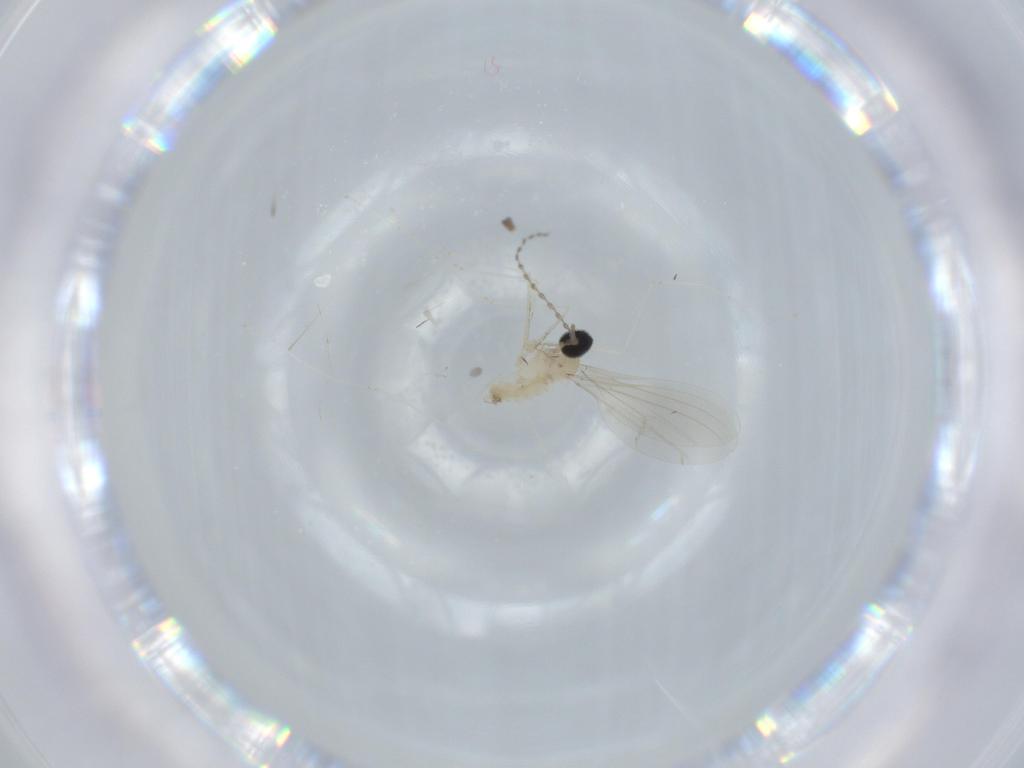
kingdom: Animalia
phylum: Arthropoda
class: Insecta
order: Diptera
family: Cecidomyiidae
